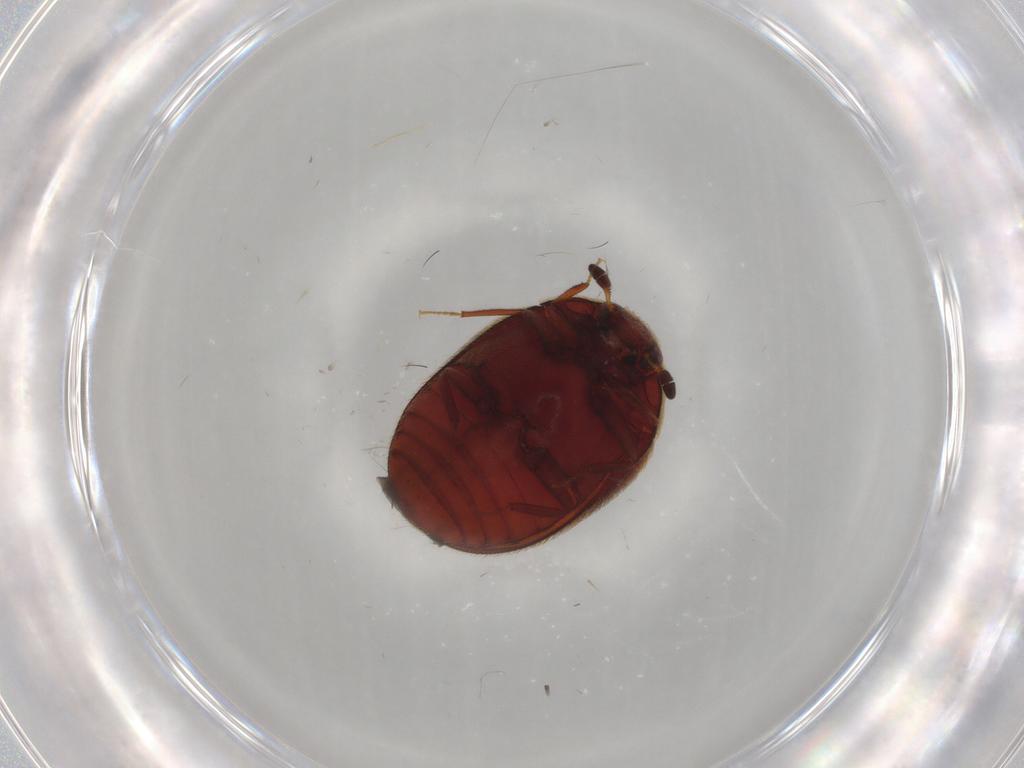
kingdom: Animalia
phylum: Arthropoda
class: Insecta
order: Coleoptera
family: Dermestidae
